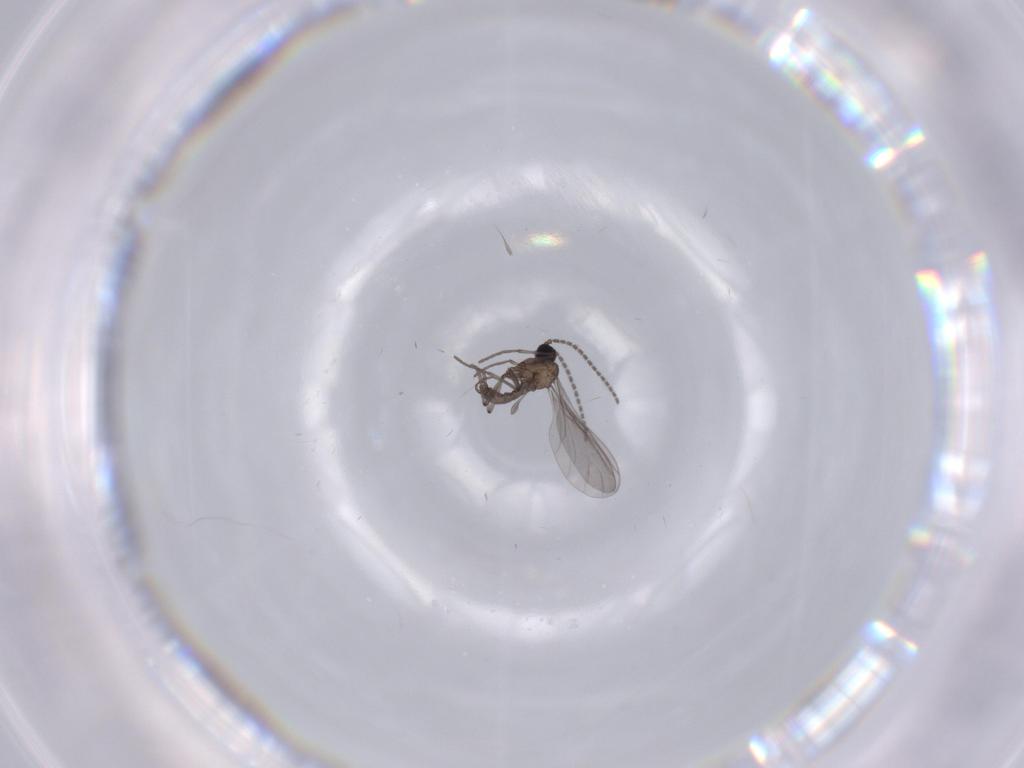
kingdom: Animalia
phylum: Arthropoda
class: Insecta
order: Diptera
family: Sciaridae
